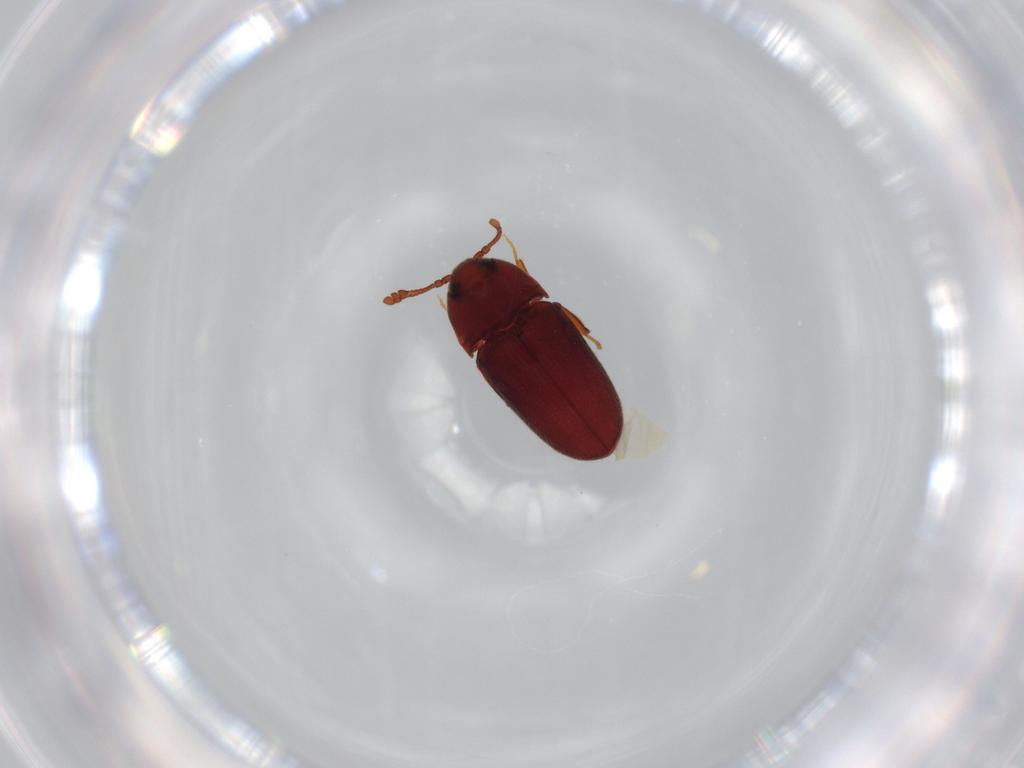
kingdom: Animalia
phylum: Arthropoda
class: Insecta
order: Coleoptera
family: Throscidae
